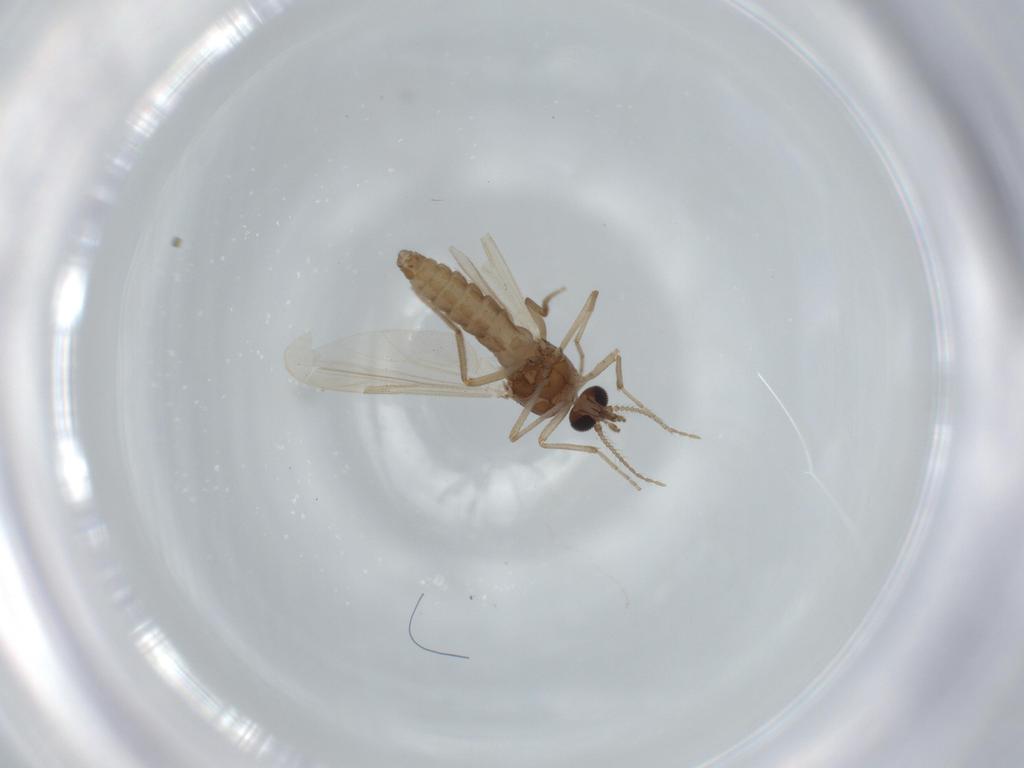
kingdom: Animalia
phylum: Arthropoda
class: Insecta
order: Diptera
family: Ceratopogonidae
